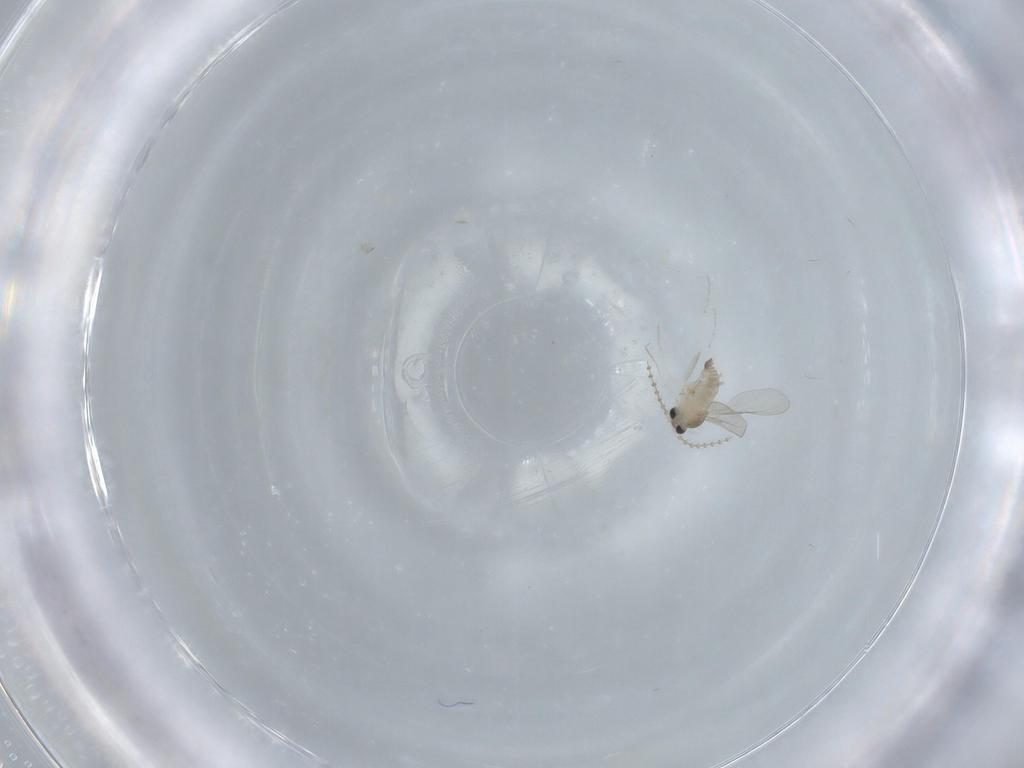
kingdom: Animalia
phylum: Arthropoda
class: Insecta
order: Diptera
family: Cecidomyiidae
